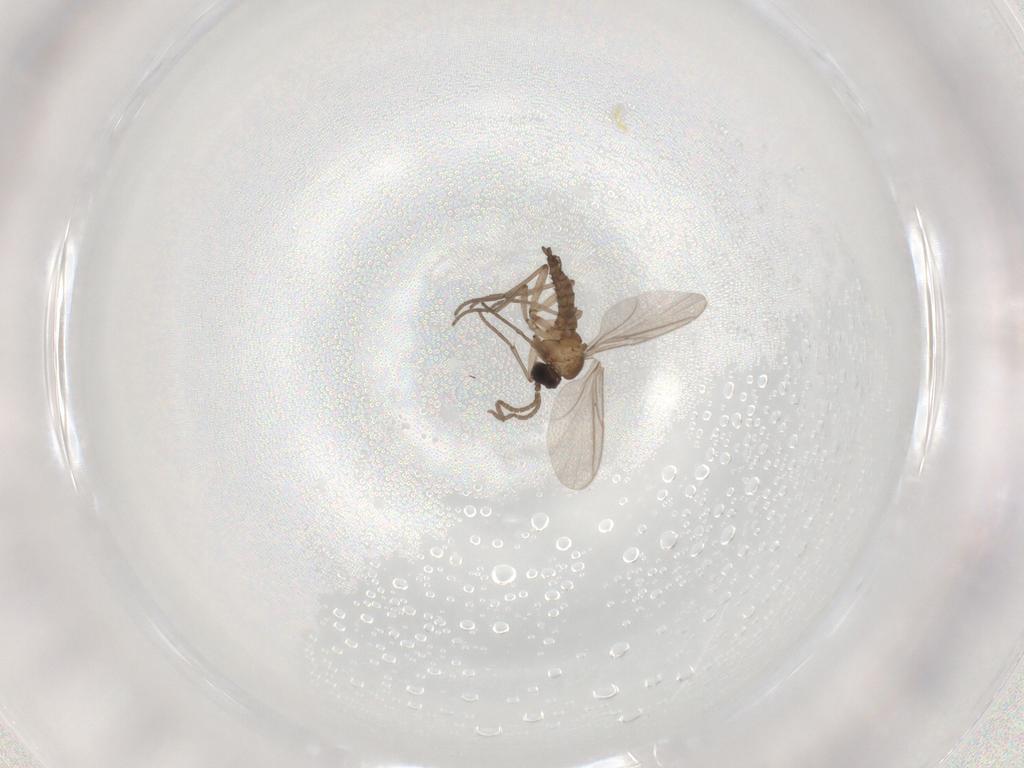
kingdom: Animalia
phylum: Arthropoda
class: Insecta
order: Diptera
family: Sciaridae
